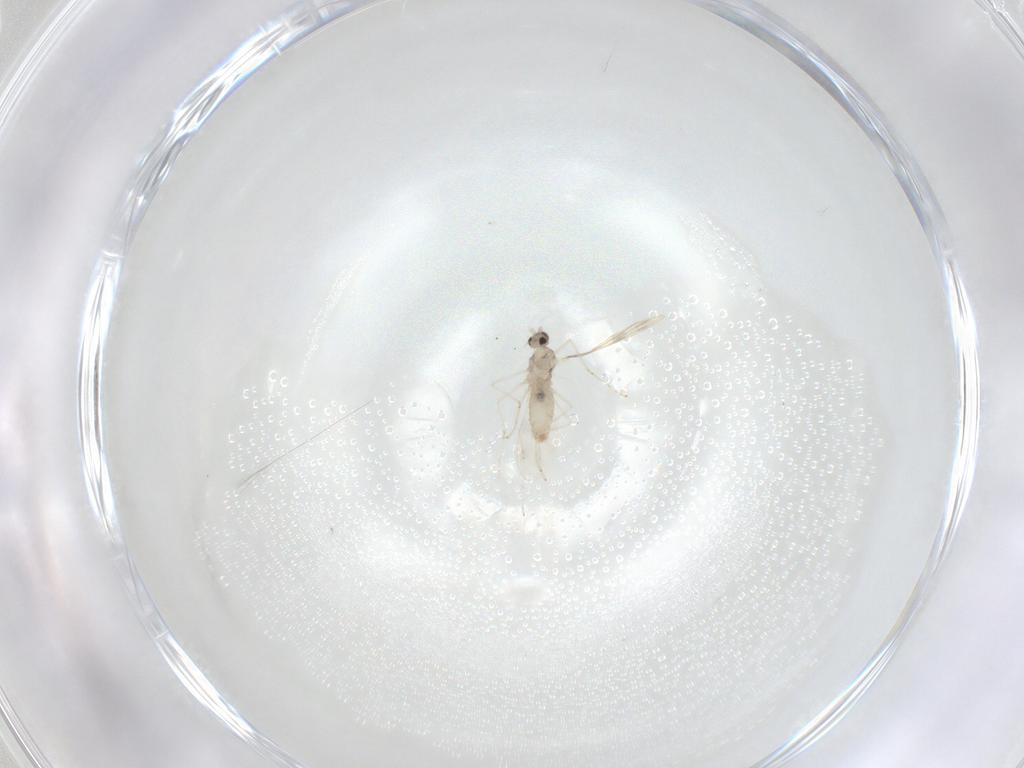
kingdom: Animalia
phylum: Arthropoda
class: Insecta
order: Diptera
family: Cecidomyiidae
